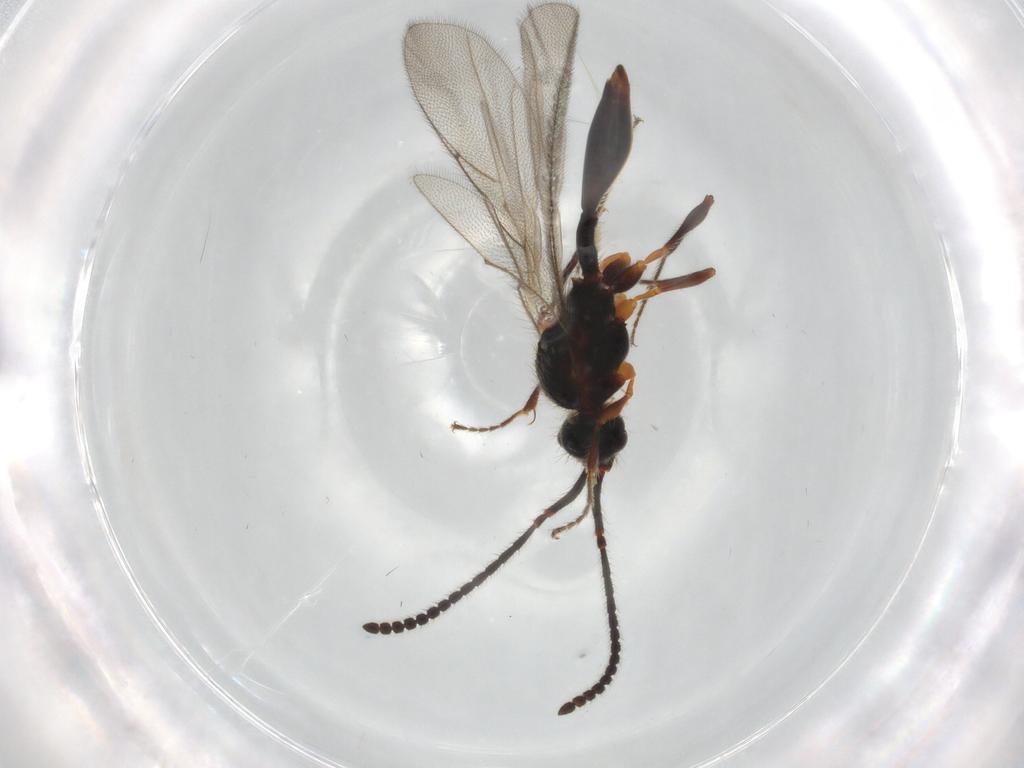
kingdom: Animalia
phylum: Arthropoda
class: Insecta
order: Hymenoptera
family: Diapriidae
